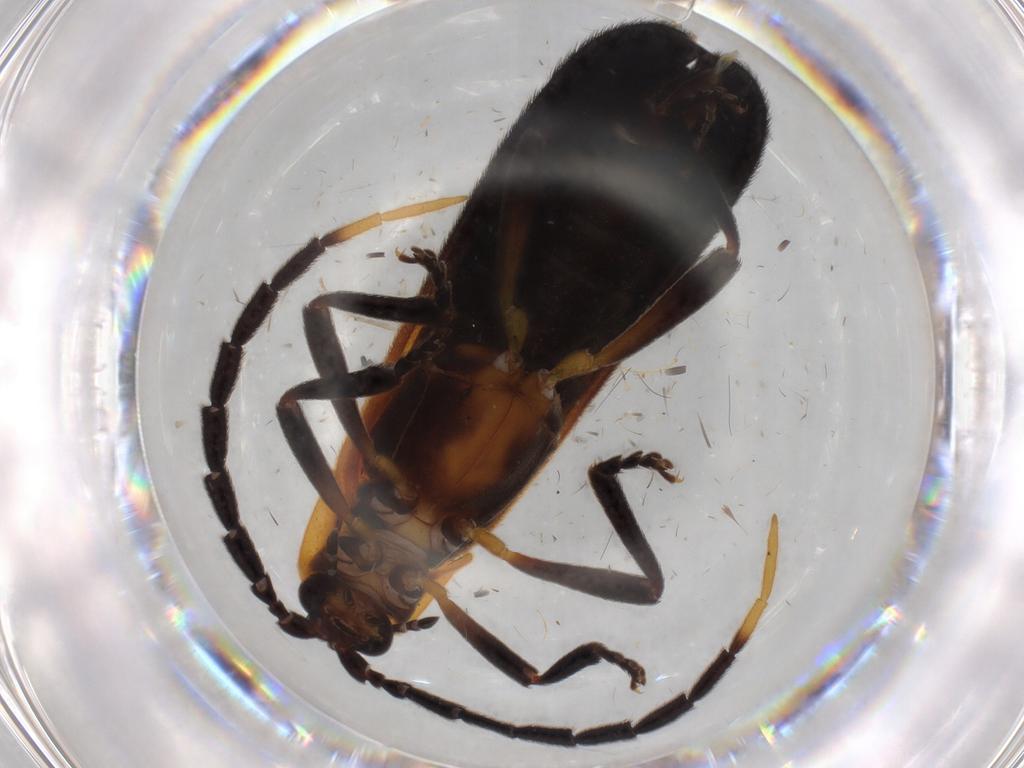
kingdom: Animalia
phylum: Arthropoda
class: Insecta
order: Coleoptera
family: Lycidae
